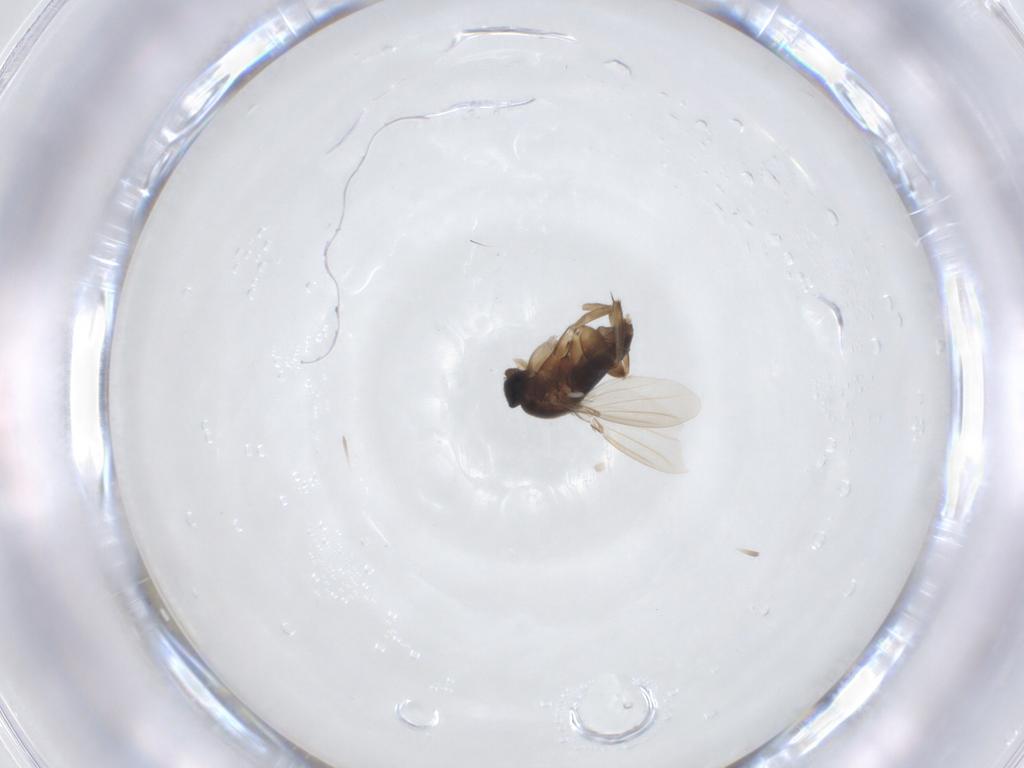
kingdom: Animalia
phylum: Arthropoda
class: Insecta
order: Diptera
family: Phoridae
